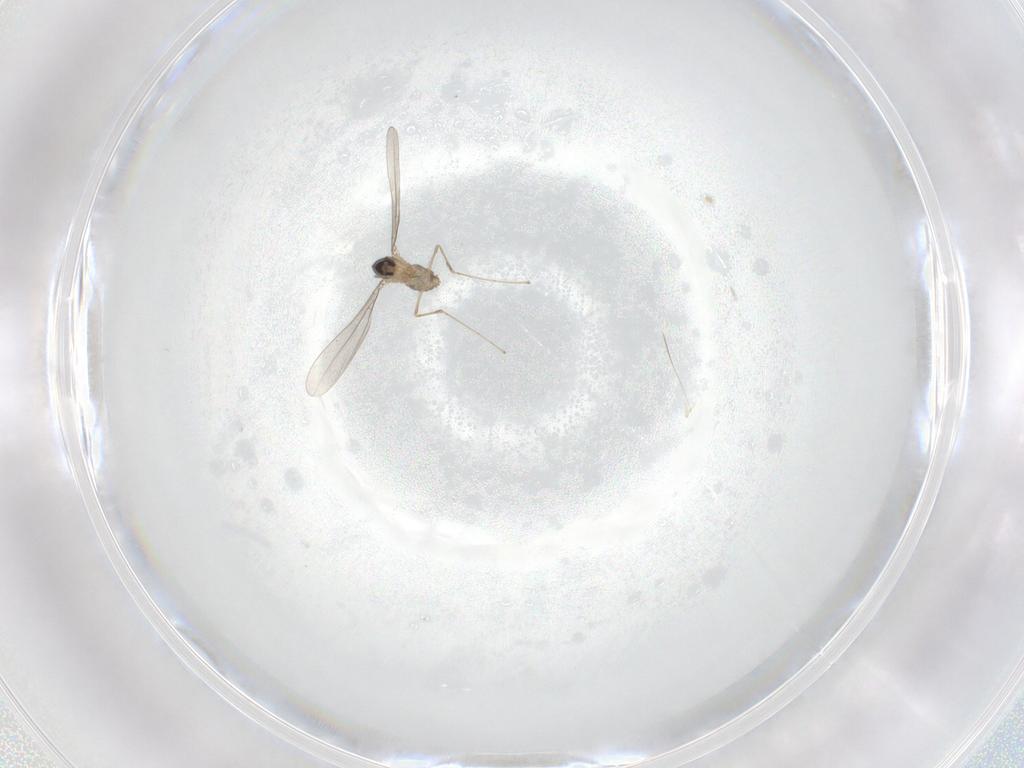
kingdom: Animalia
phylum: Arthropoda
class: Insecta
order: Diptera
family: Cecidomyiidae
